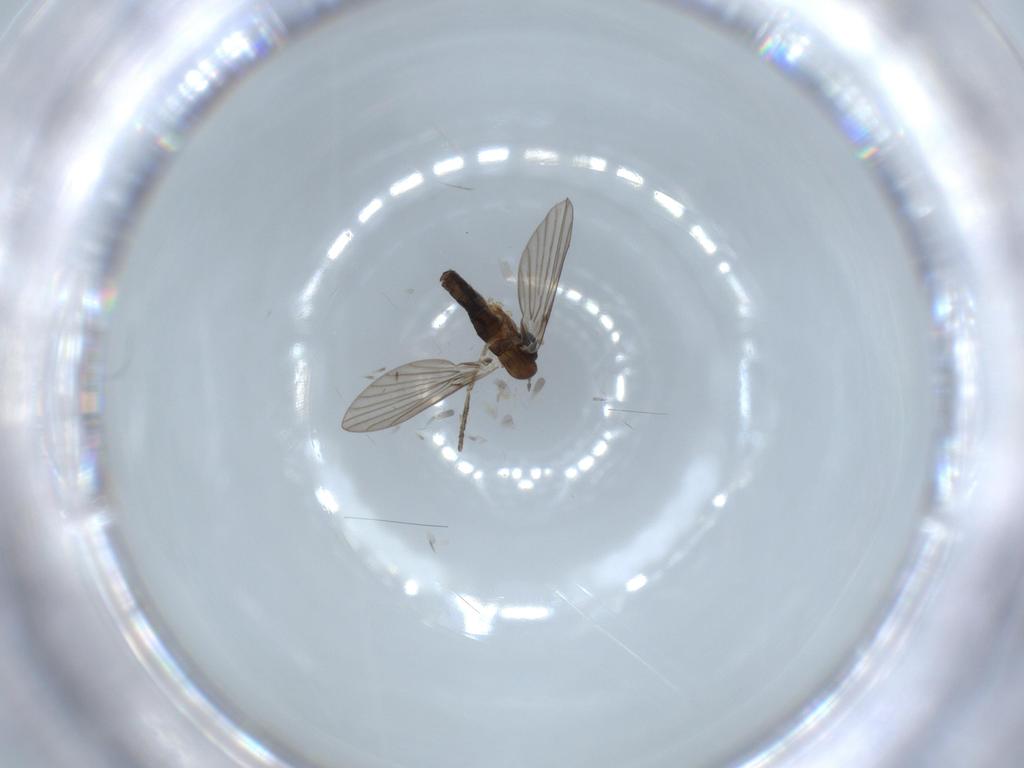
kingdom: Animalia
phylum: Arthropoda
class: Insecta
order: Diptera
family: Psychodidae
